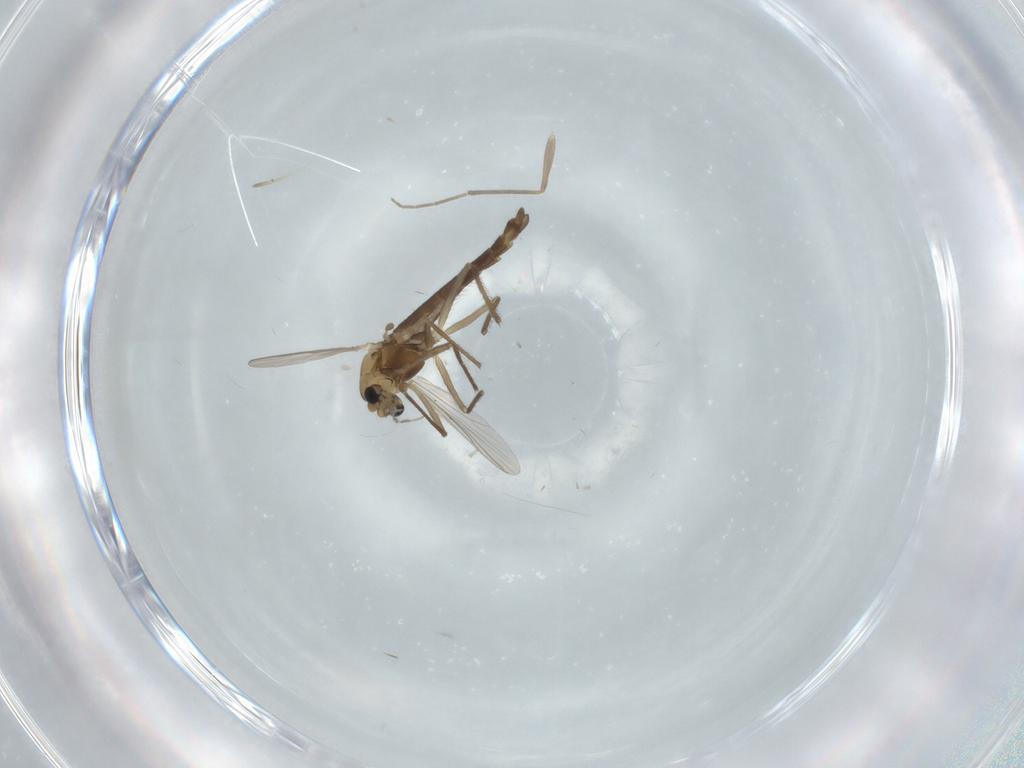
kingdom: Animalia
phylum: Arthropoda
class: Insecta
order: Diptera
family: Chironomidae
